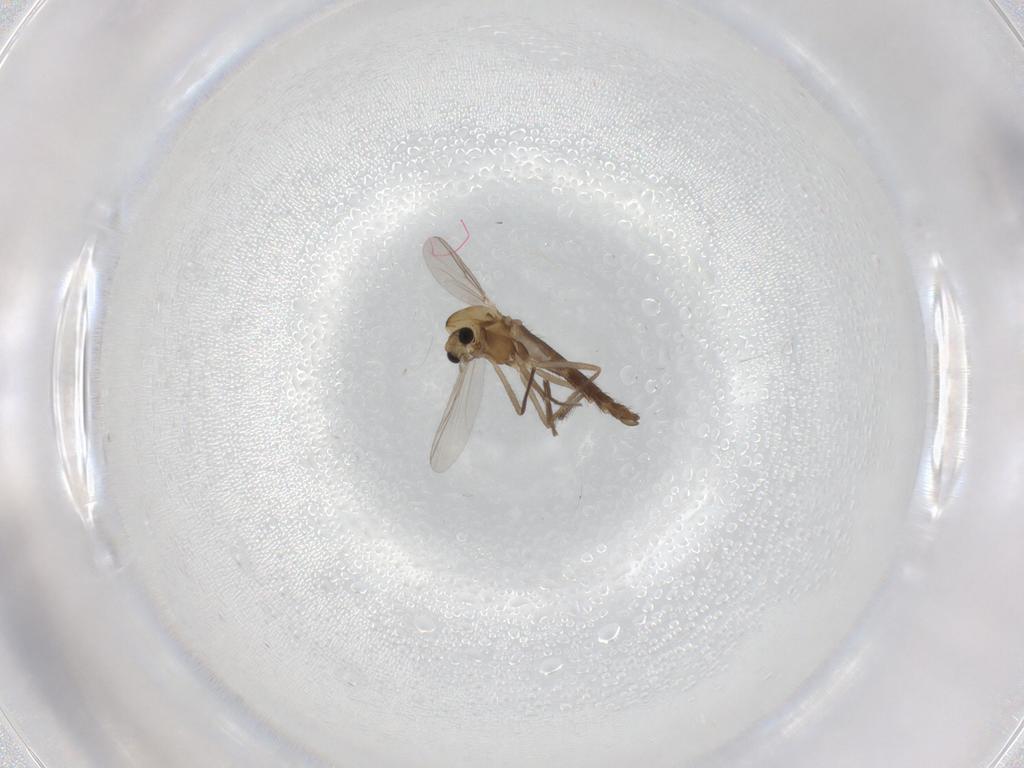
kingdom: Animalia
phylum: Arthropoda
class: Insecta
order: Diptera
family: Chironomidae
